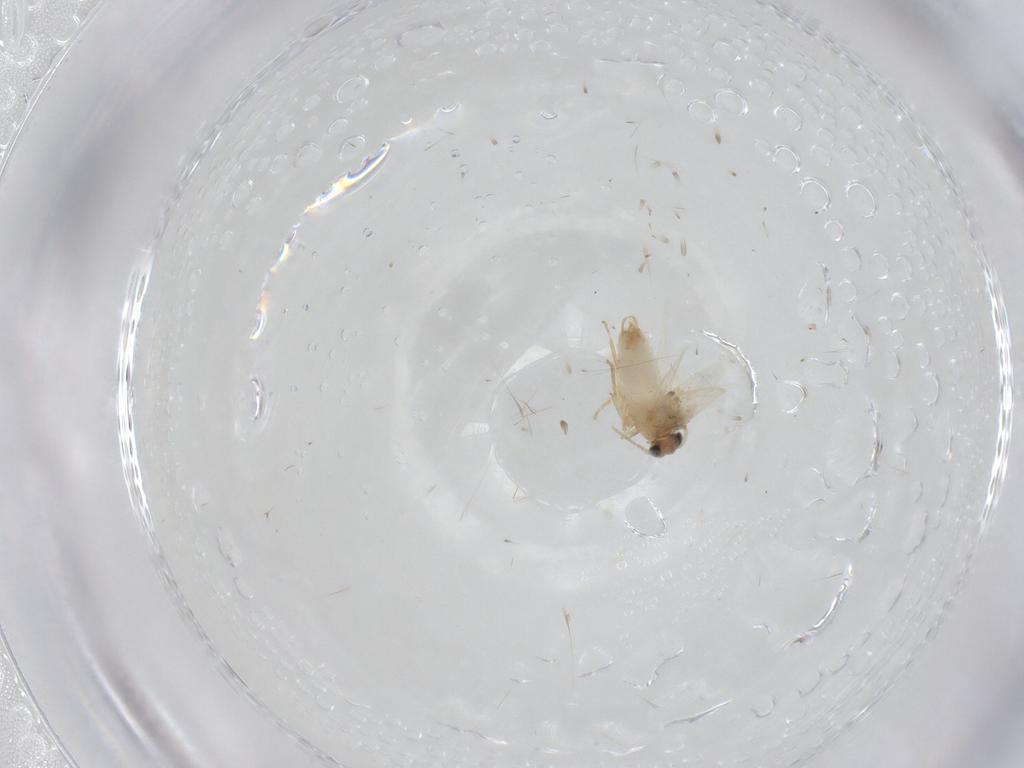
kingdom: Animalia
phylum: Arthropoda
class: Insecta
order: Lepidoptera
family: Nepticulidae
